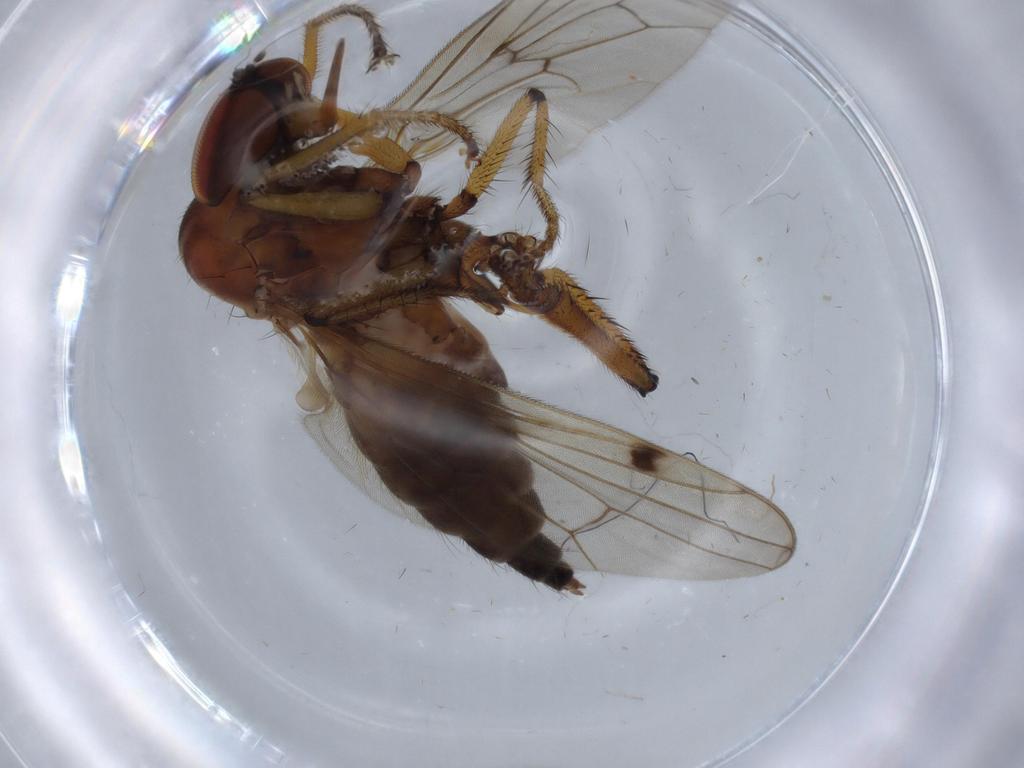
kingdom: Animalia
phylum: Arthropoda
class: Insecta
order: Diptera
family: Hybotidae
